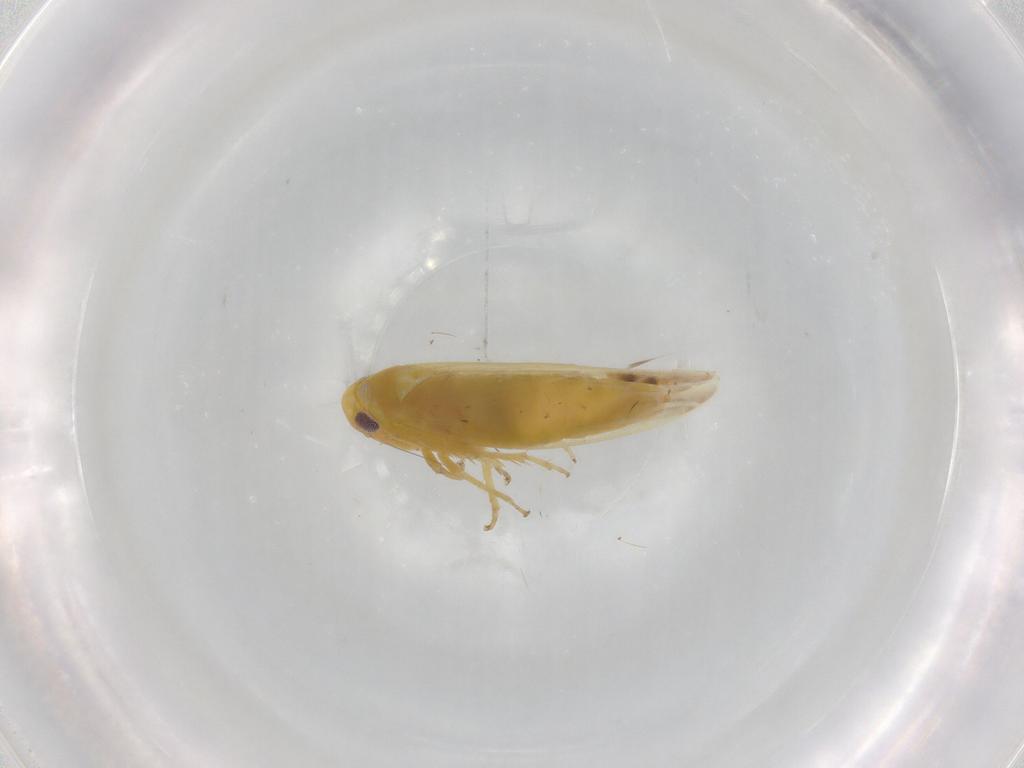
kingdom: Animalia
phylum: Arthropoda
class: Insecta
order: Hemiptera
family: Cicadellidae
